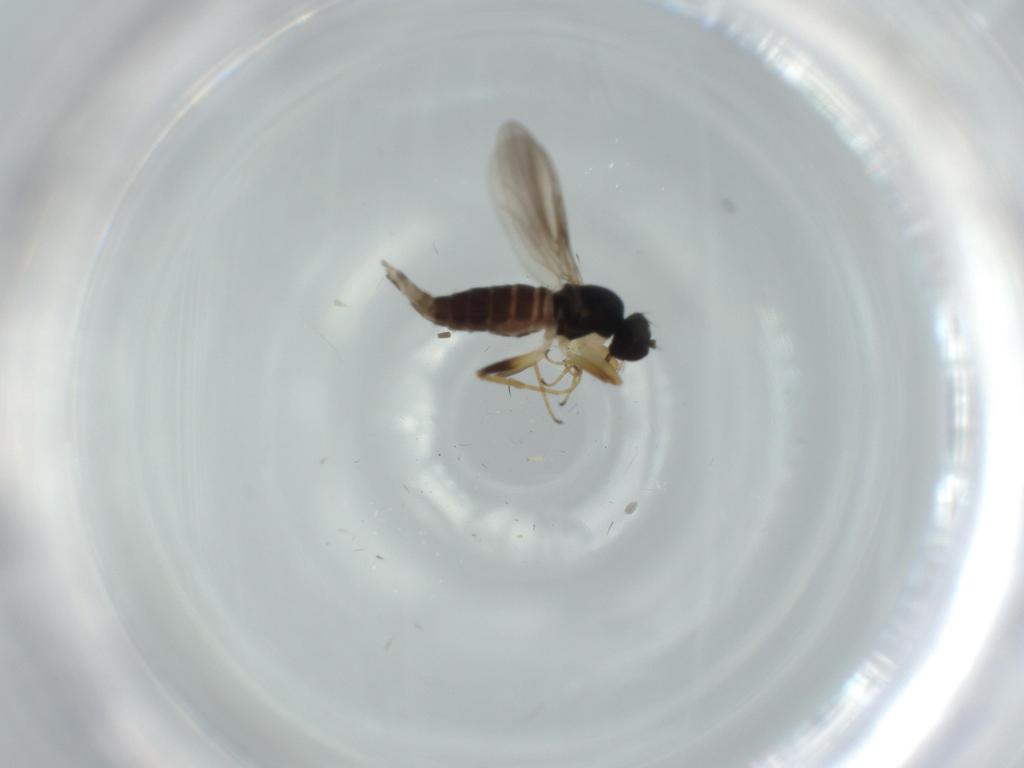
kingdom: Animalia
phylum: Arthropoda
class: Insecta
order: Diptera
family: Hybotidae
